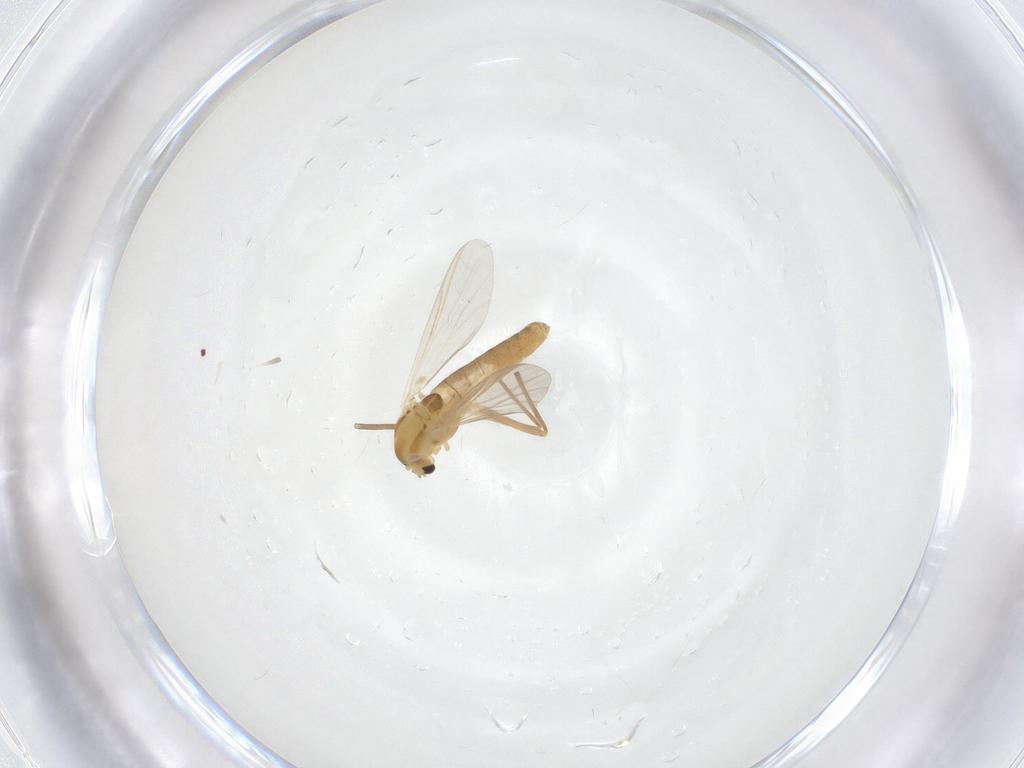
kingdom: Animalia
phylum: Arthropoda
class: Insecta
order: Diptera
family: Chironomidae
